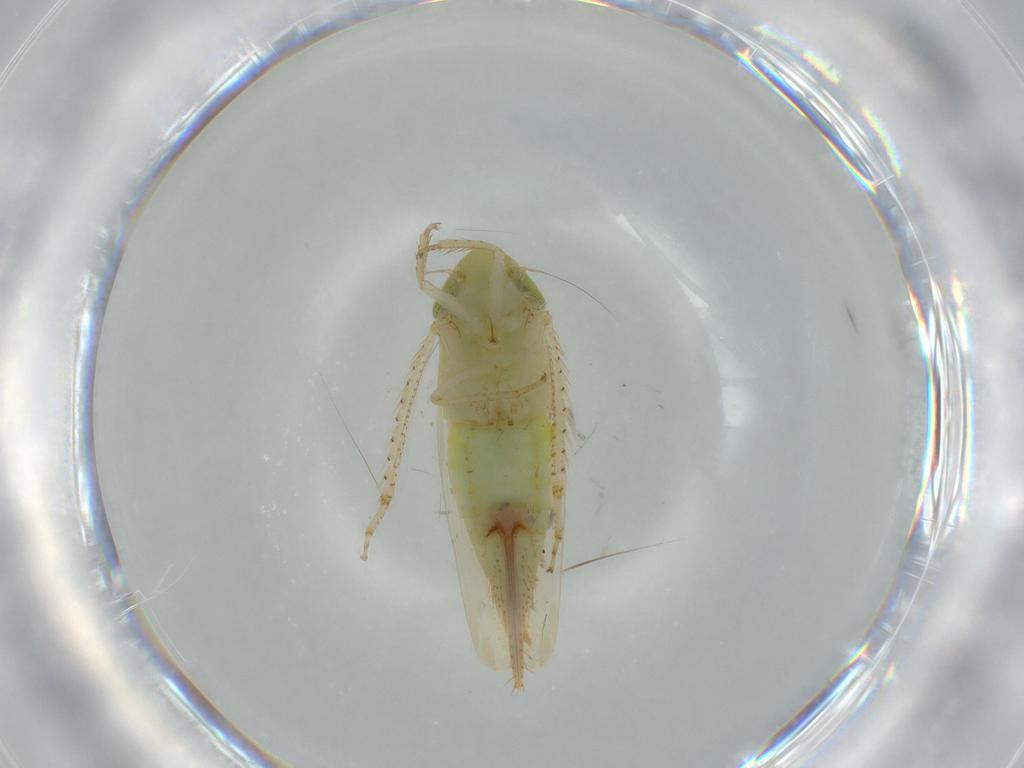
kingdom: Animalia
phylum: Arthropoda
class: Insecta
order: Hemiptera
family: Cicadellidae
